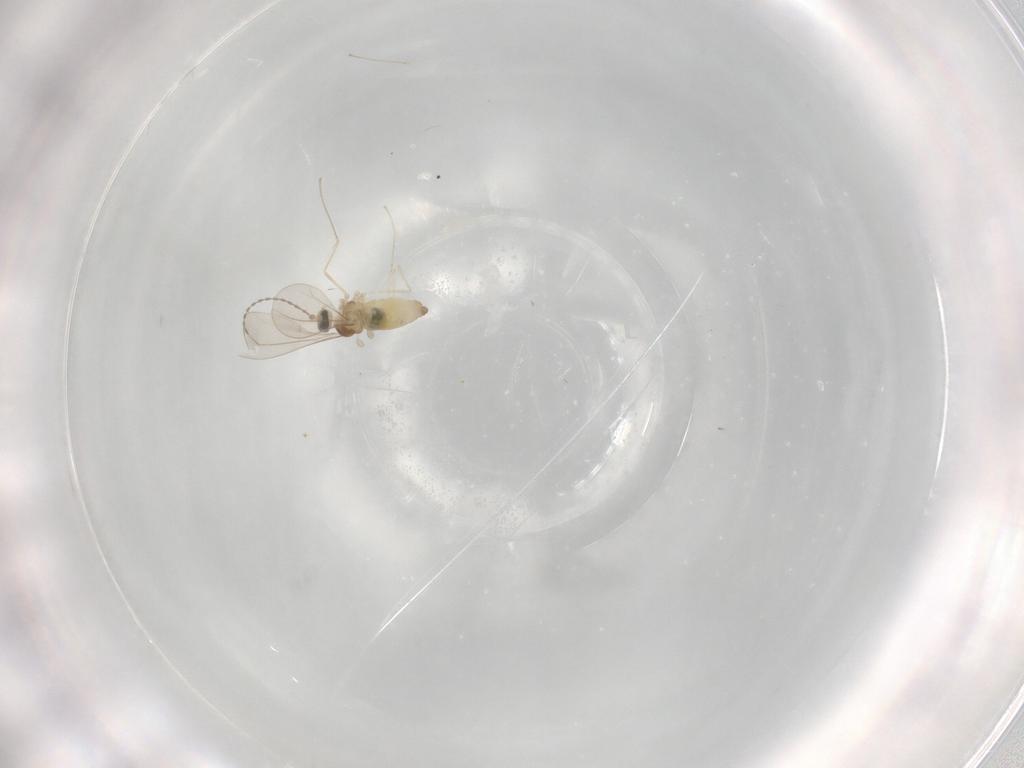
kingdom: Animalia
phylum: Arthropoda
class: Insecta
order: Diptera
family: Cecidomyiidae
